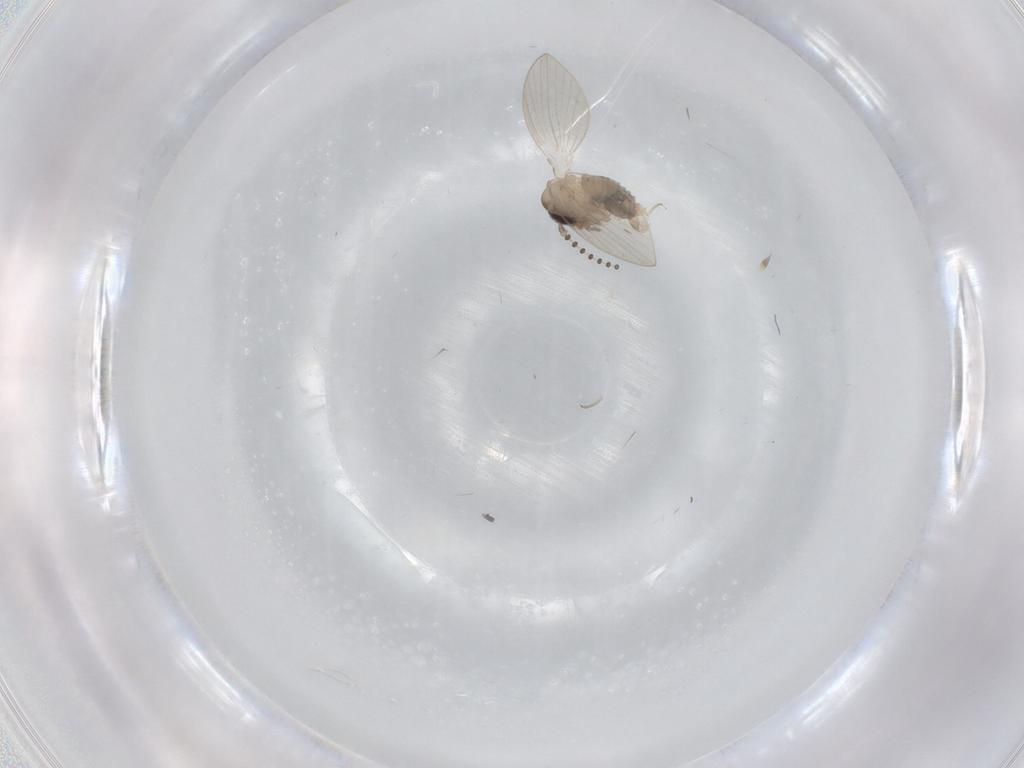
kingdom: Animalia
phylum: Arthropoda
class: Insecta
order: Diptera
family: Psychodidae
